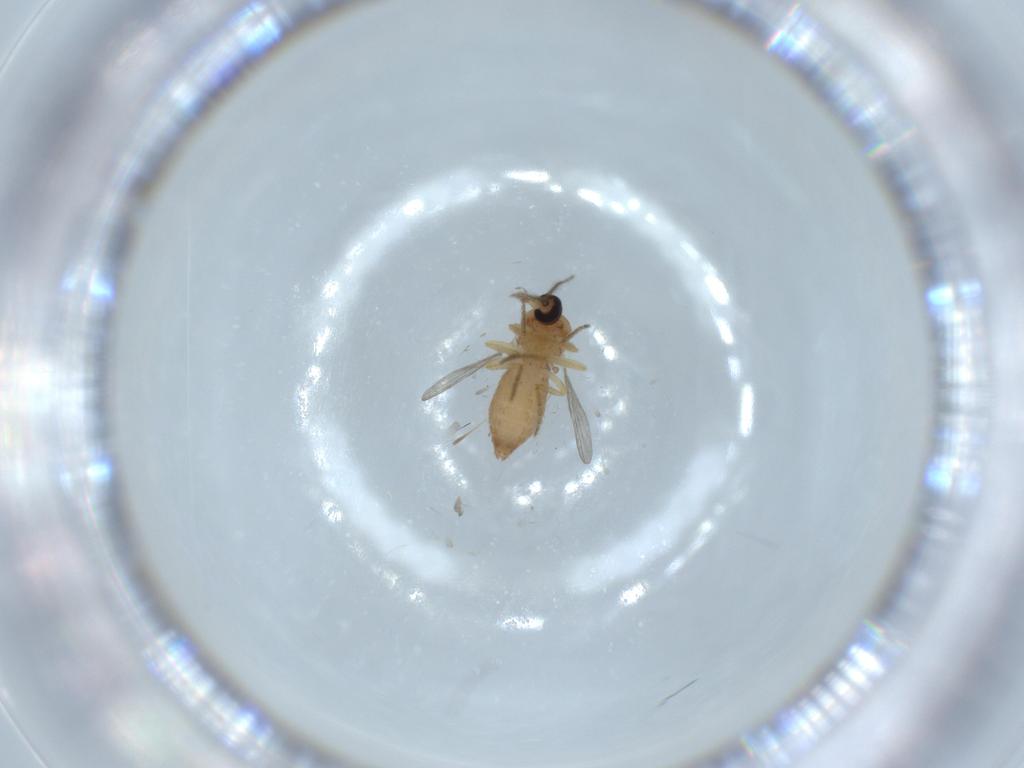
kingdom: Animalia
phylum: Arthropoda
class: Insecta
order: Diptera
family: Ceratopogonidae
